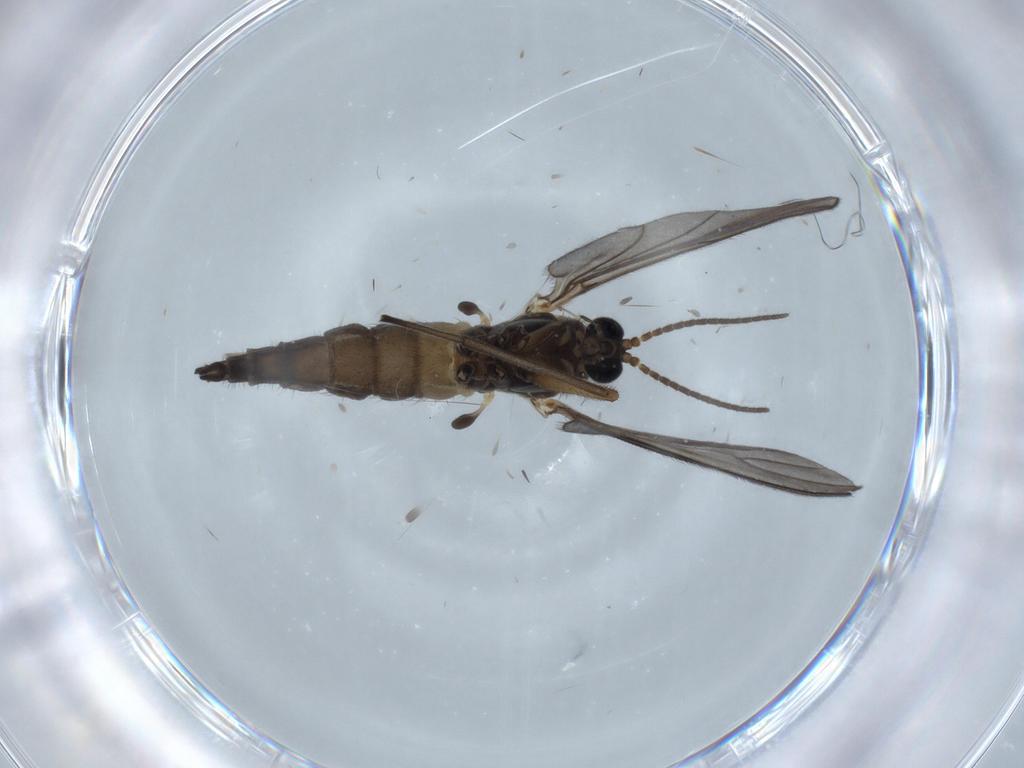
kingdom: Animalia
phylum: Arthropoda
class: Insecta
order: Diptera
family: Sciaridae
